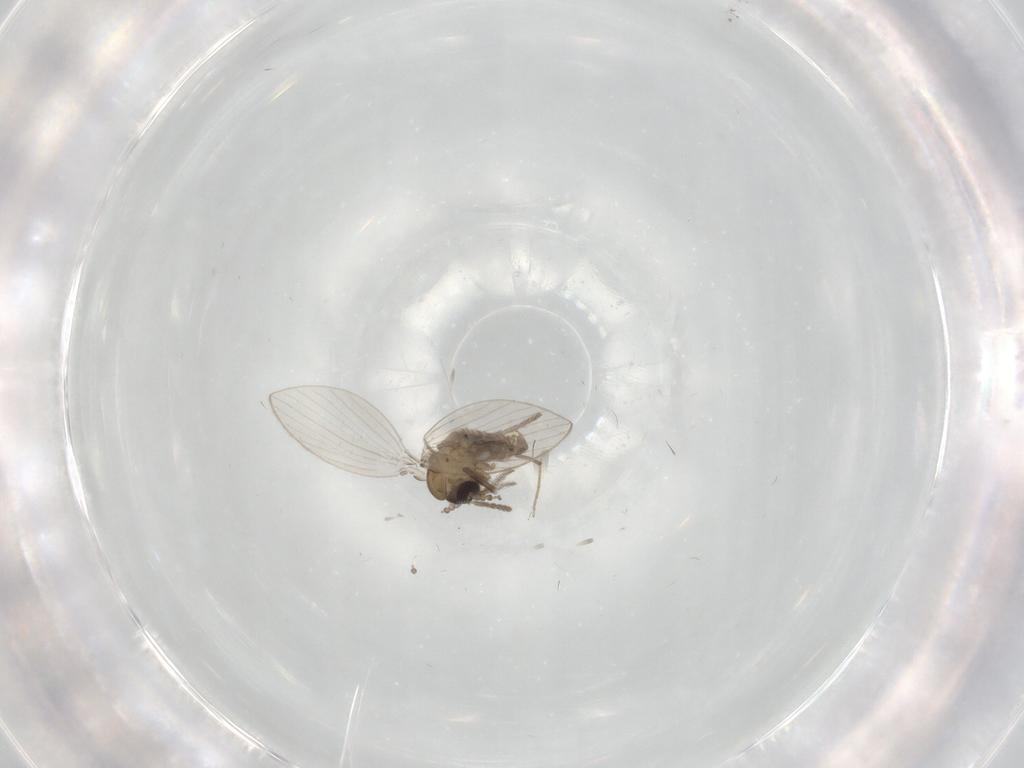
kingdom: Animalia
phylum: Arthropoda
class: Insecta
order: Diptera
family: Psychodidae
